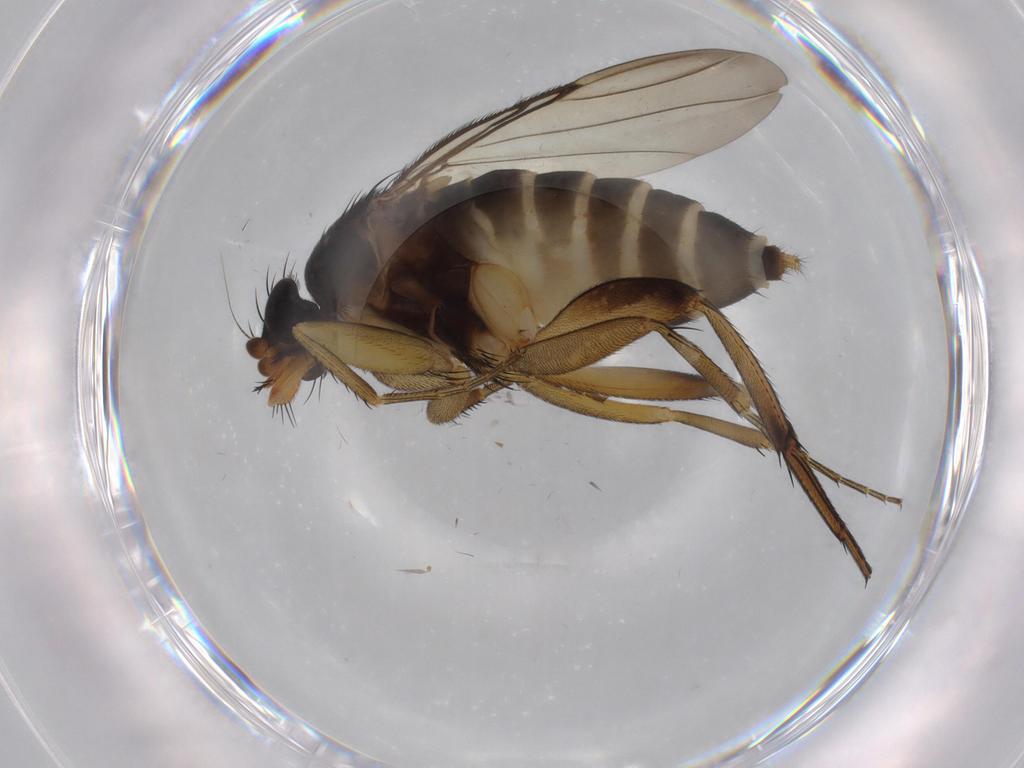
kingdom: Animalia
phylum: Arthropoda
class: Insecta
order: Diptera
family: Phoridae
